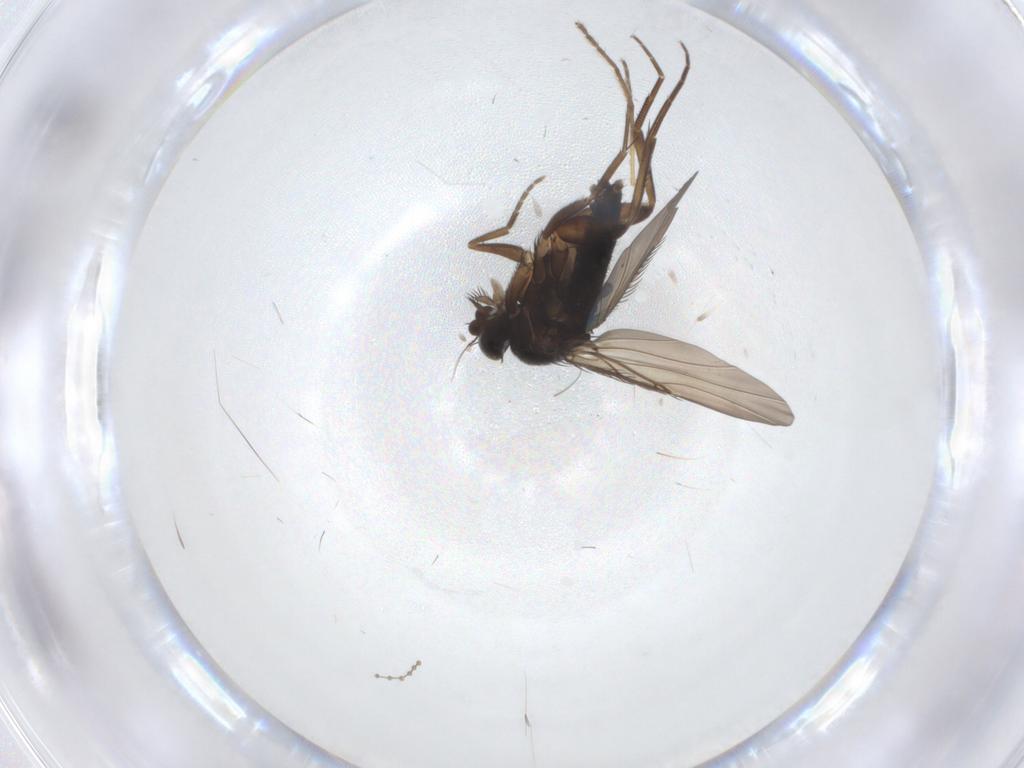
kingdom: Animalia
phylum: Arthropoda
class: Insecta
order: Diptera
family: Phoridae
